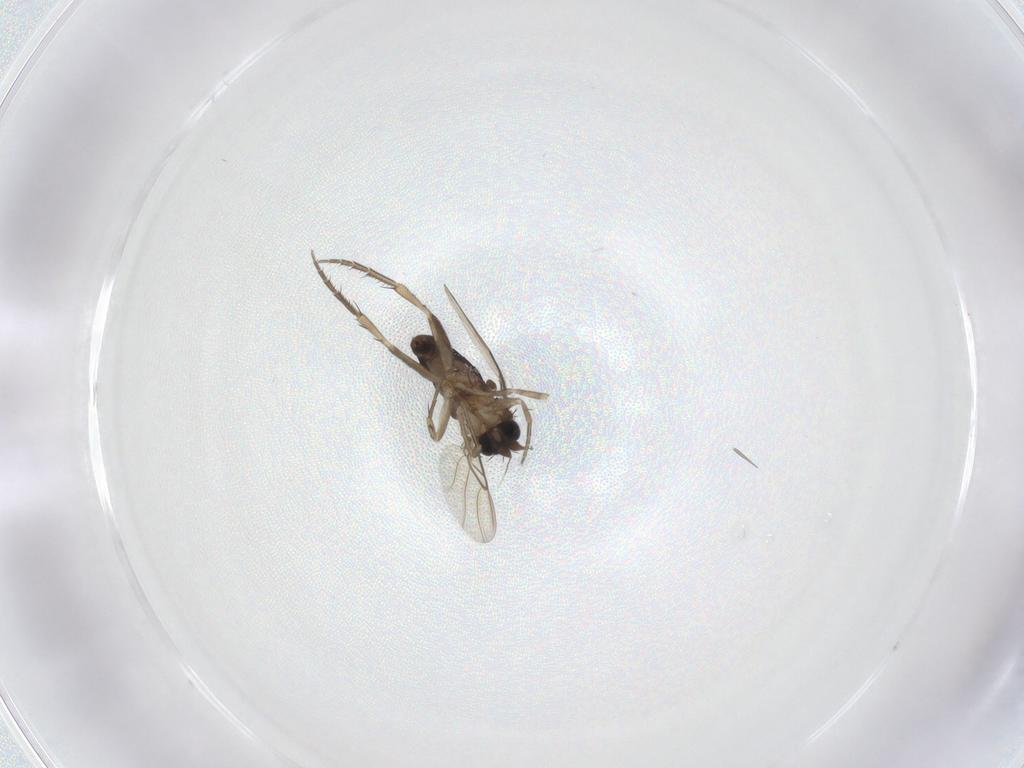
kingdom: Animalia
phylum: Arthropoda
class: Insecta
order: Diptera
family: Phoridae
